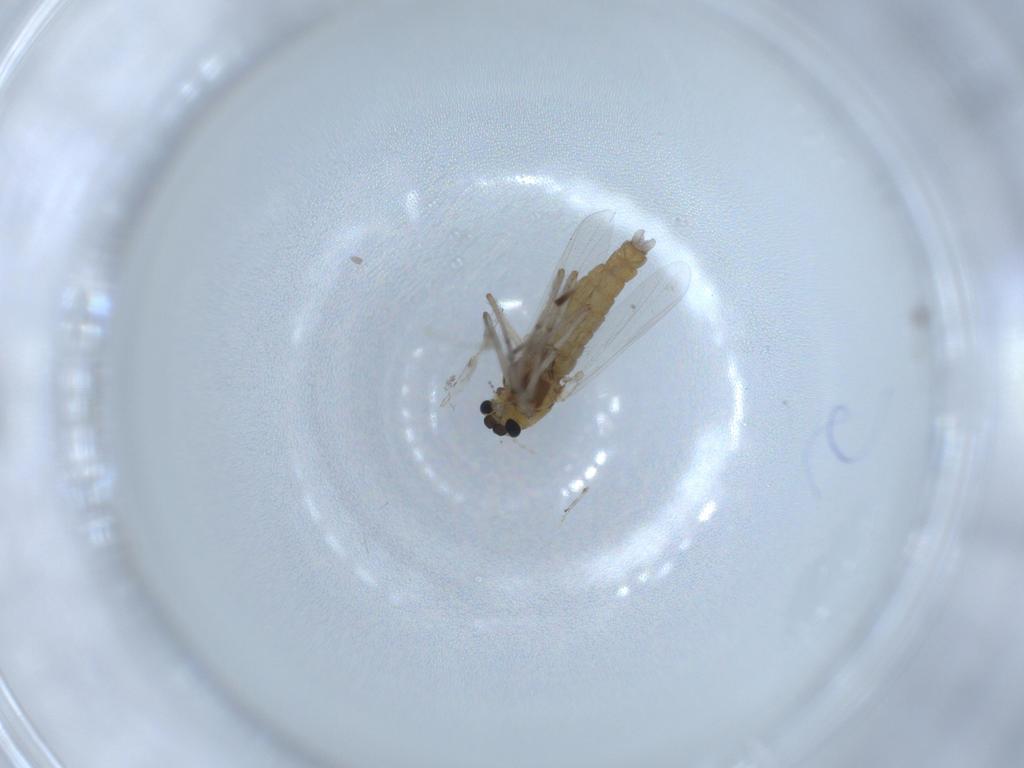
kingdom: Animalia
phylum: Arthropoda
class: Insecta
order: Diptera
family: Chironomidae
